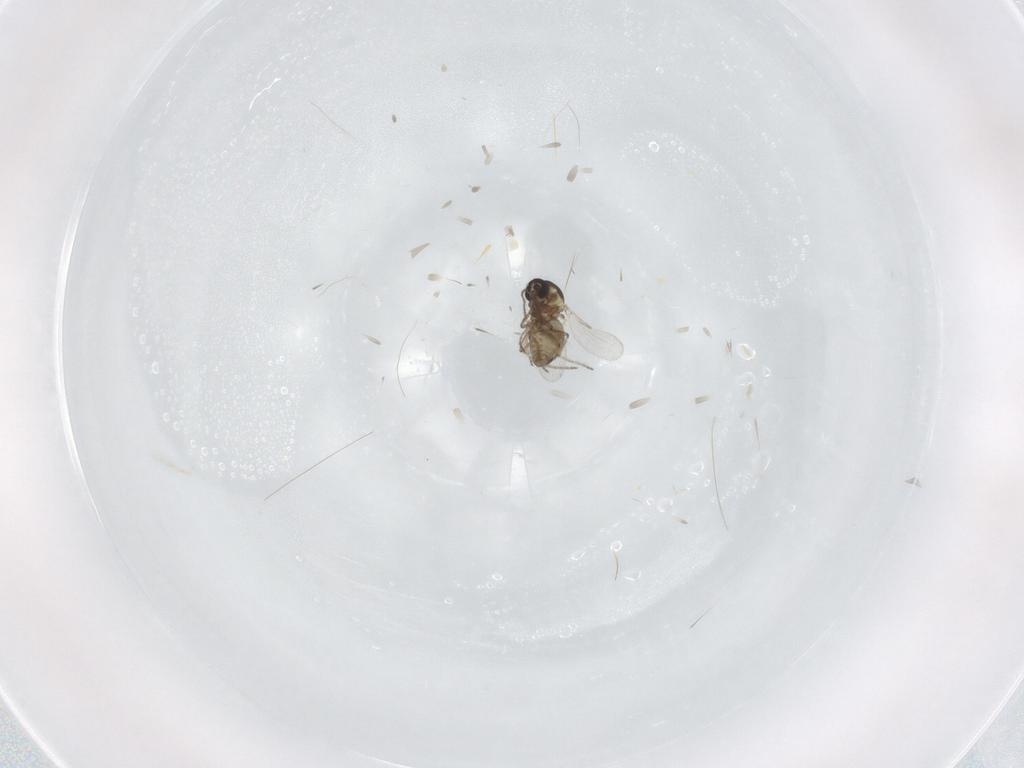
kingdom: Animalia
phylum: Arthropoda
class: Insecta
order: Diptera
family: Ceratopogonidae
